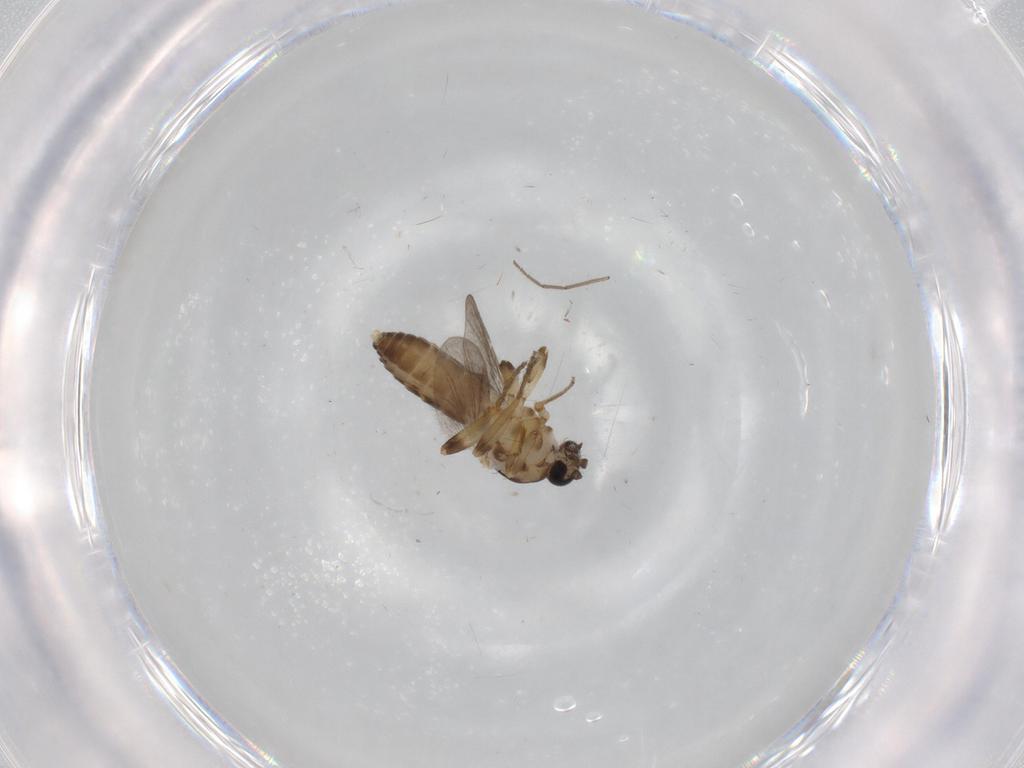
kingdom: Animalia
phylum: Arthropoda
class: Insecta
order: Diptera
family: Ceratopogonidae
